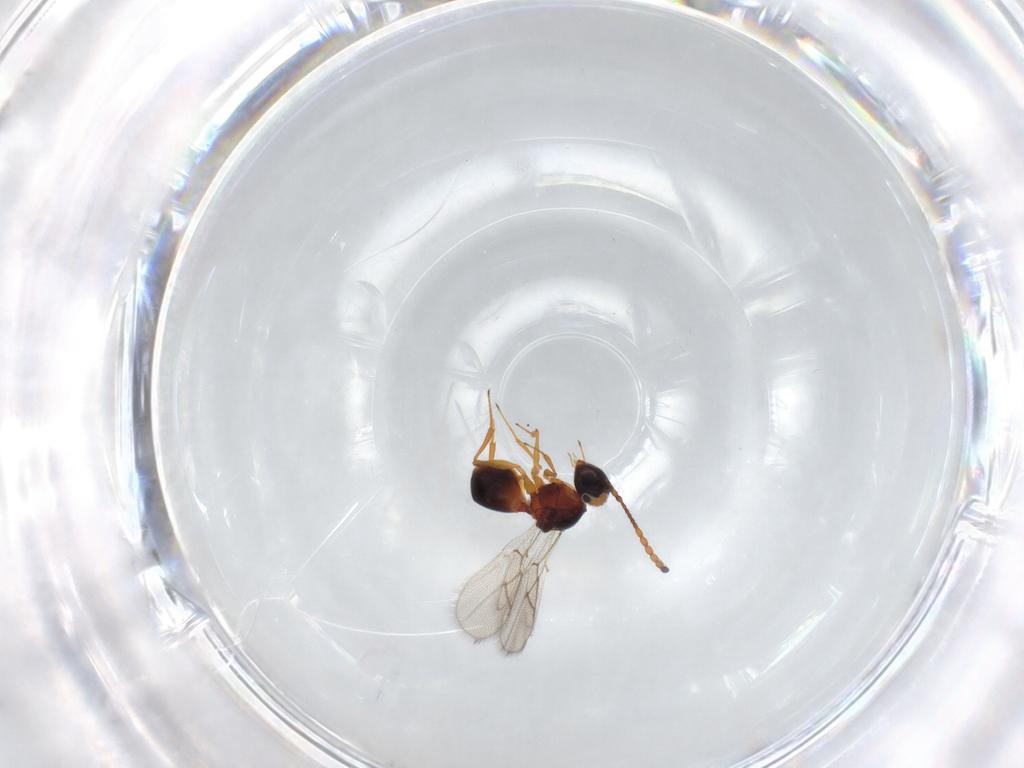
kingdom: Animalia
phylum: Arthropoda
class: Insecta
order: Hymenoptera
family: Figitidae
